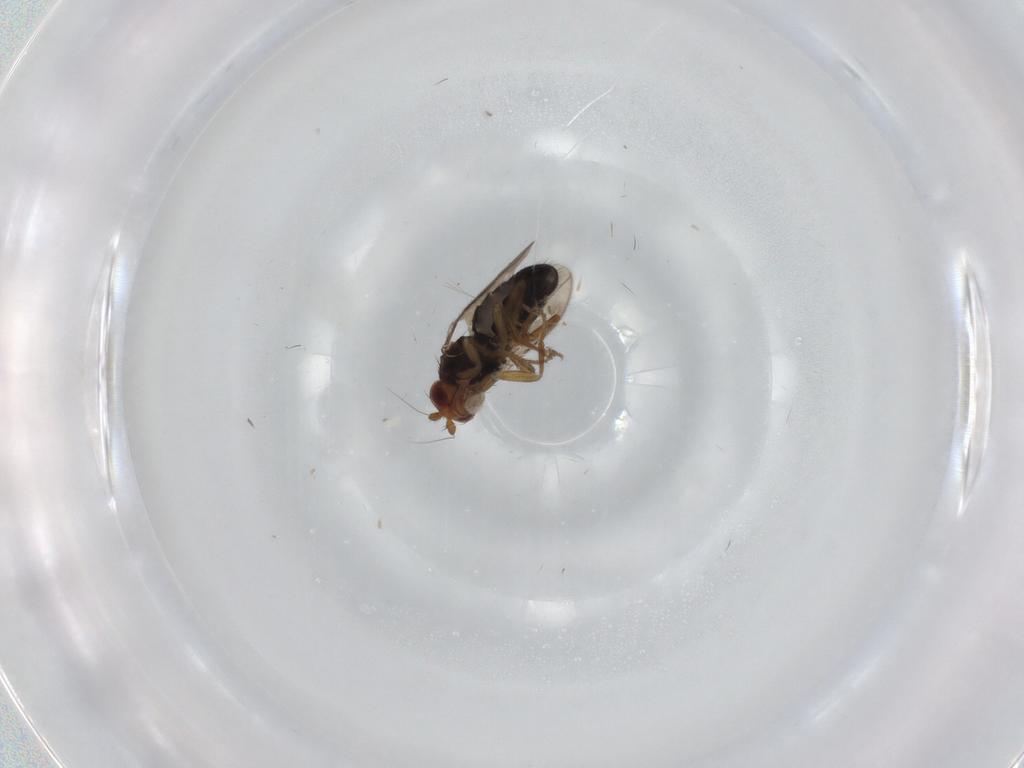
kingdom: Animalia
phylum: Arthropoda
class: Insecta
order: Diptera
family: Sphaeroceridae
